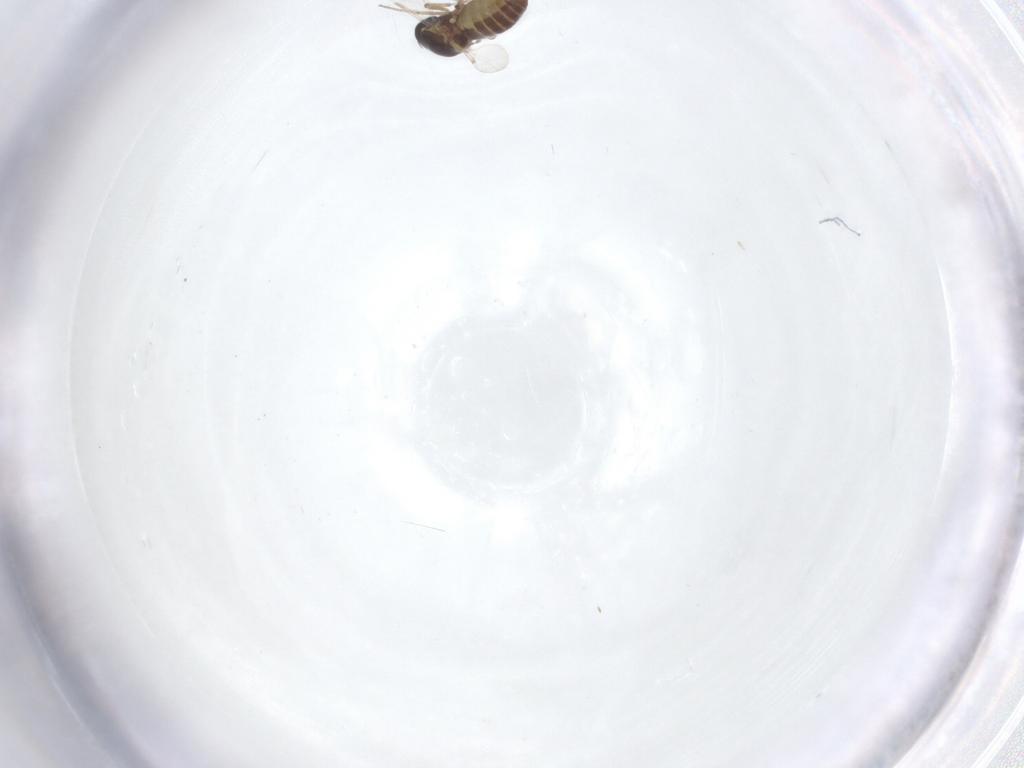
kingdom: Animalia
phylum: Arthropoda
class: Insecta
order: Diptera
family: Ceratopogonidae
